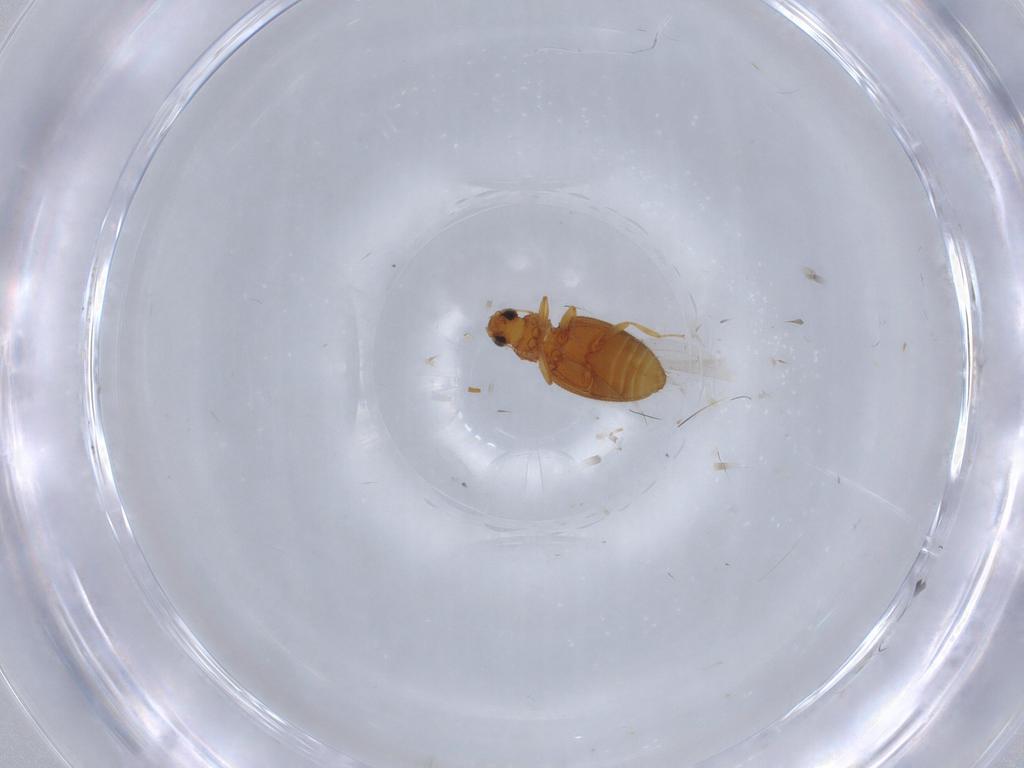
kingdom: Animalia
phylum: Arthropoda
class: Insecta
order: Coleoptera
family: Latridiidae
